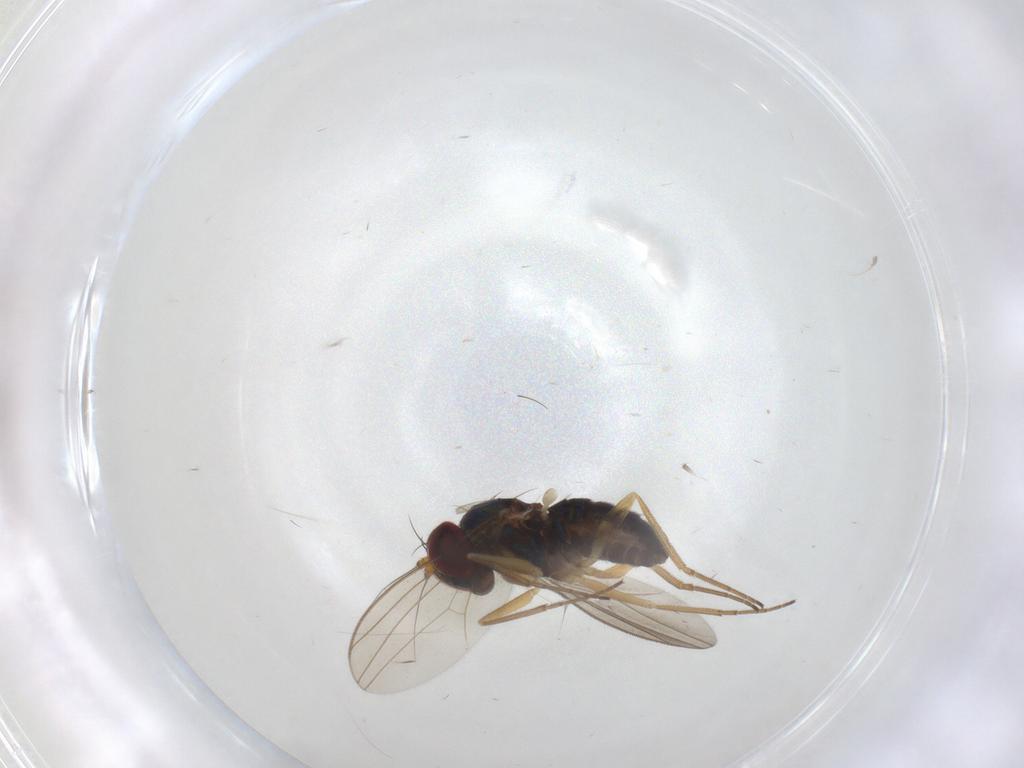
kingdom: Animalia
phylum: Arthropoda
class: Insecta
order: Diptera
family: Dolichopodidae
